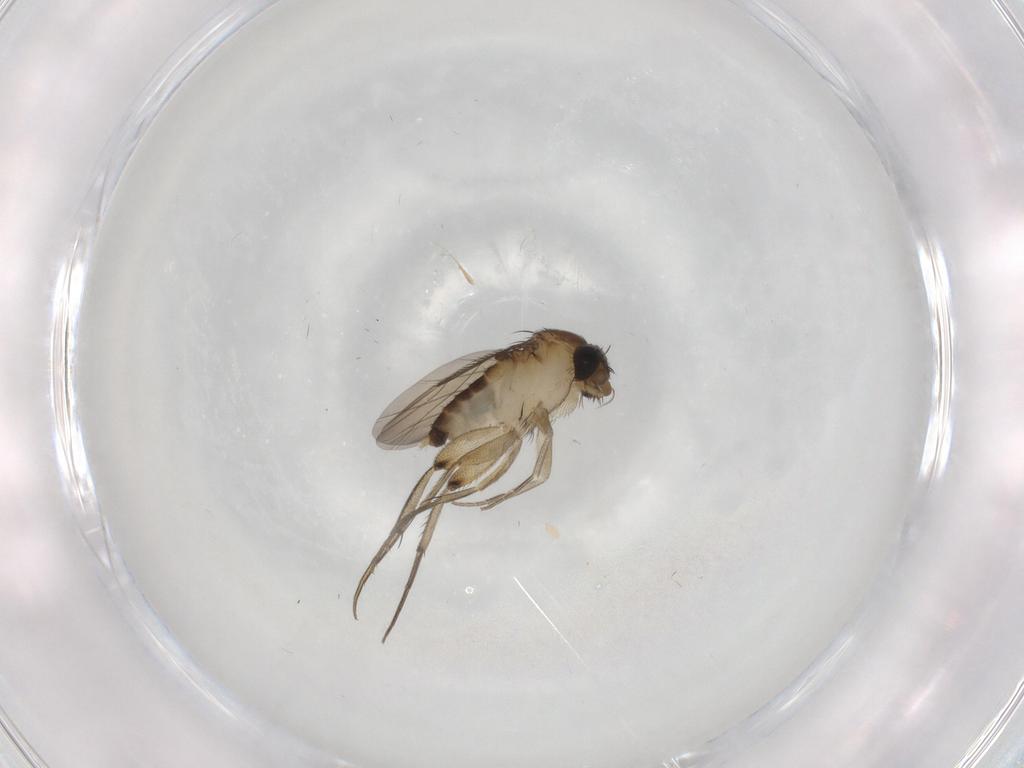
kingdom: Animalia
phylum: Arthropoda
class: Insecta
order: Diptera
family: Phoridae
